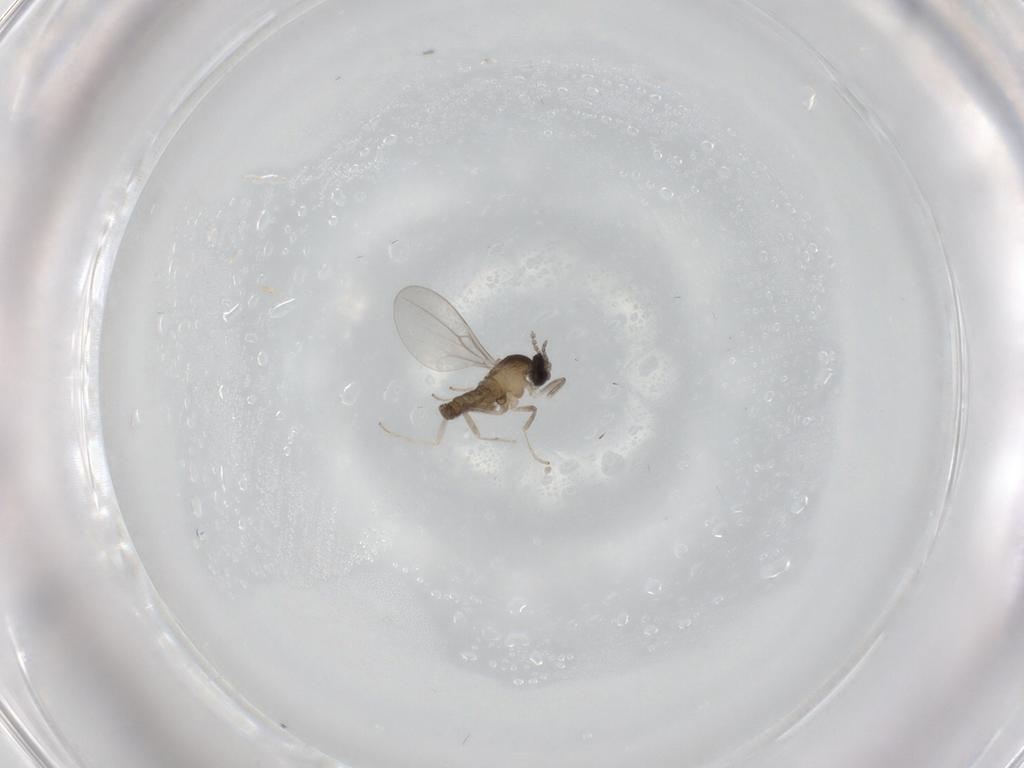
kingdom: Animalia
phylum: Arthropoda
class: Insecta
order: Diptera
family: Cecidomyiidae
